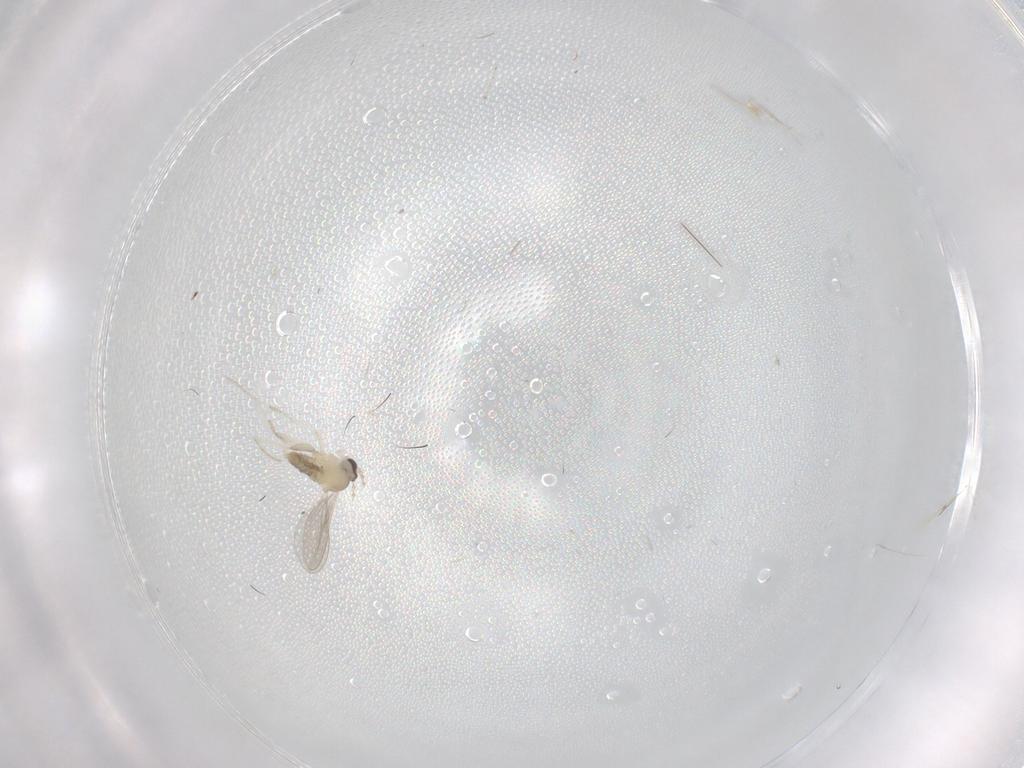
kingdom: Animalia
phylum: Arthropoda
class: Insecta
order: Diptera
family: Cecidomyiidae
